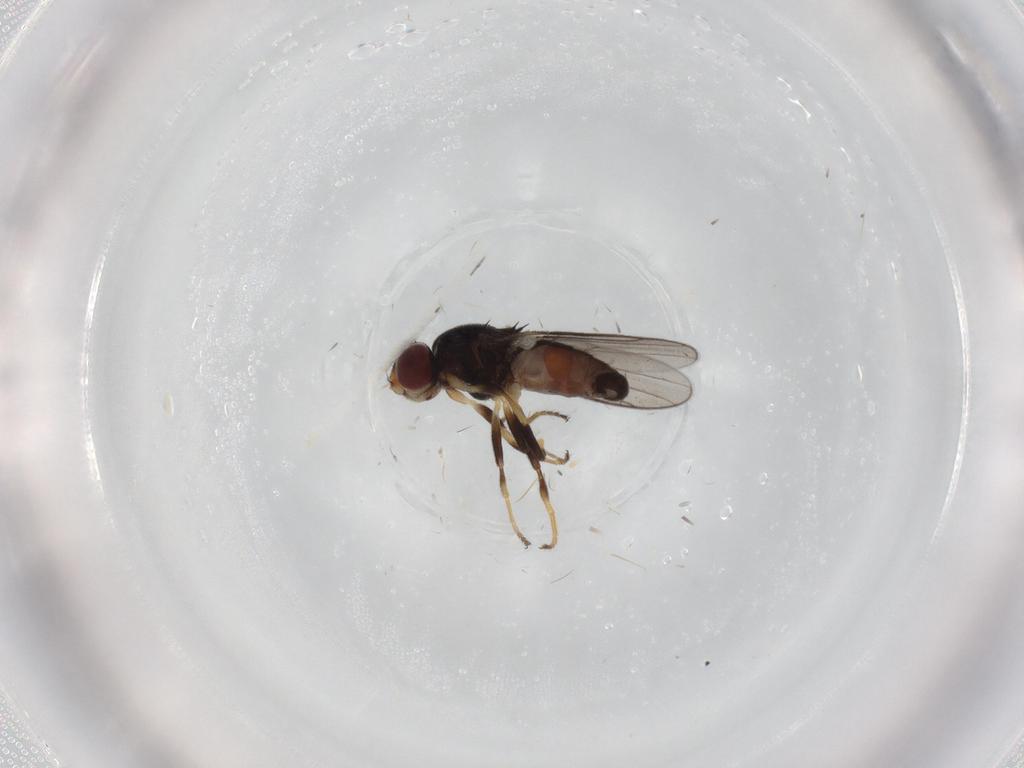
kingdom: Animalia
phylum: Arthropoda
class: Insecta
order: Diptera
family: Chloropidae
